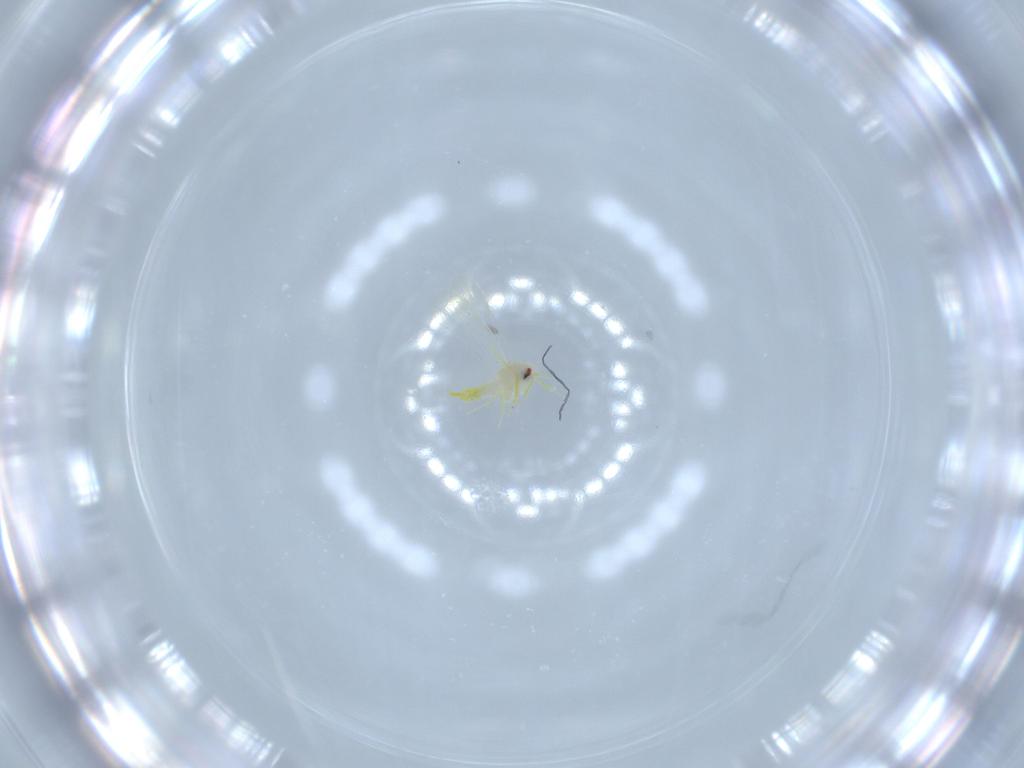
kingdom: Animalia
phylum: Arthropoda
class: Insecta
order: Hemiptera
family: Aleyrodidae
